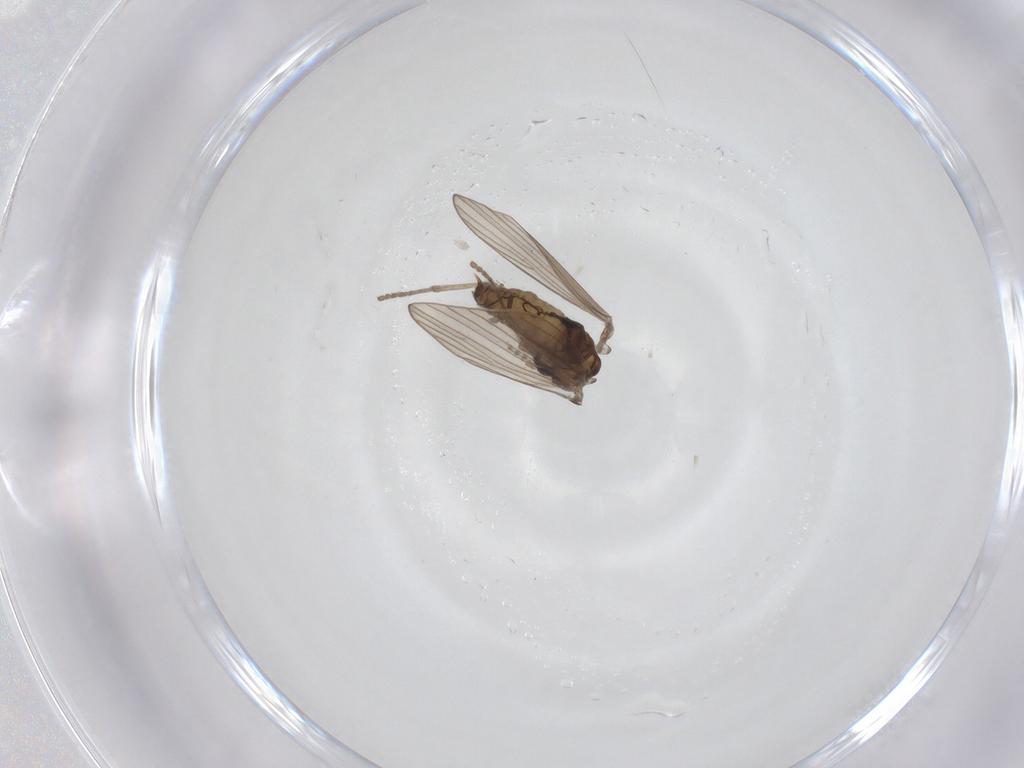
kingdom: Animalia
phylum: Arthropoda
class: Insecta
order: Diptera
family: Psychodidae
